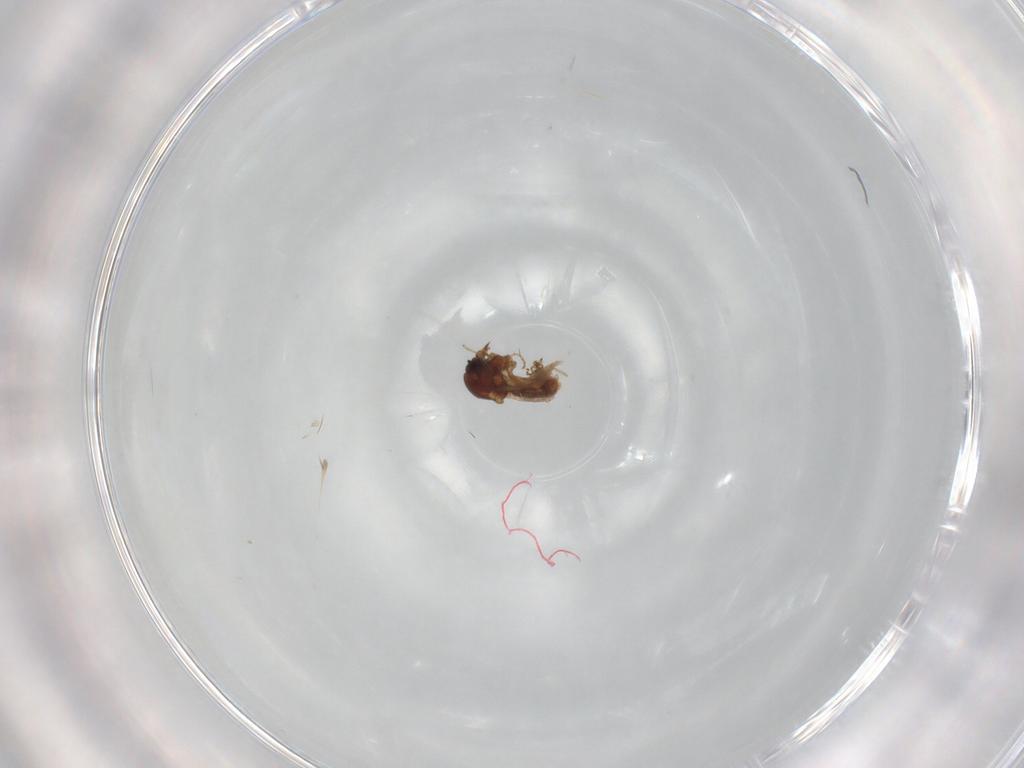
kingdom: Animalia
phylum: Arthropoda
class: Insecta
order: Diptera
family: Ceratopogonidae
